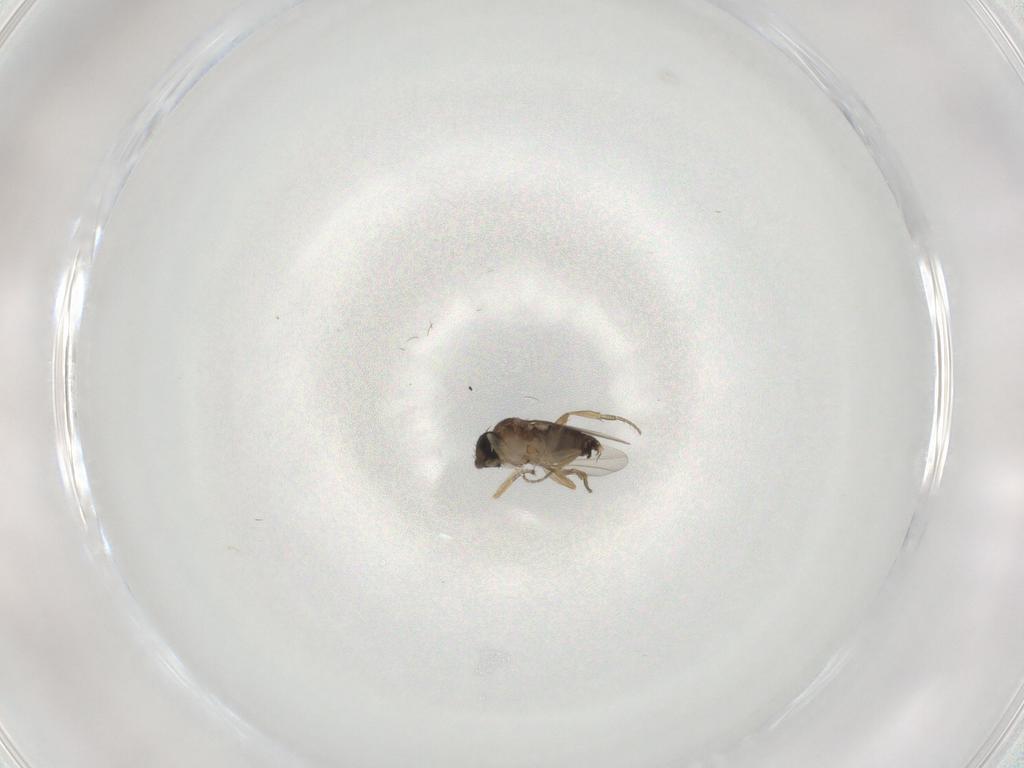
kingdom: Animalia
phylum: Arthropoda
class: Insecta
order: Diptera
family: Phoridae
